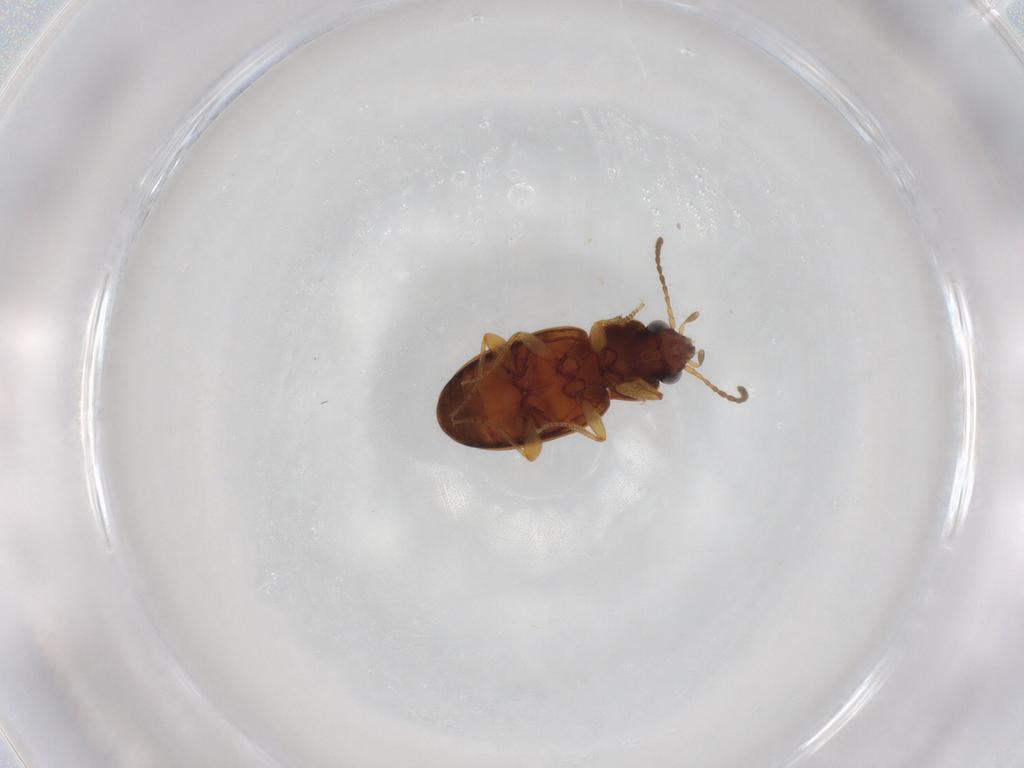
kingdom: Animalia
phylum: Arthropoda
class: Insecta
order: Coleoptera
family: Carabidae
